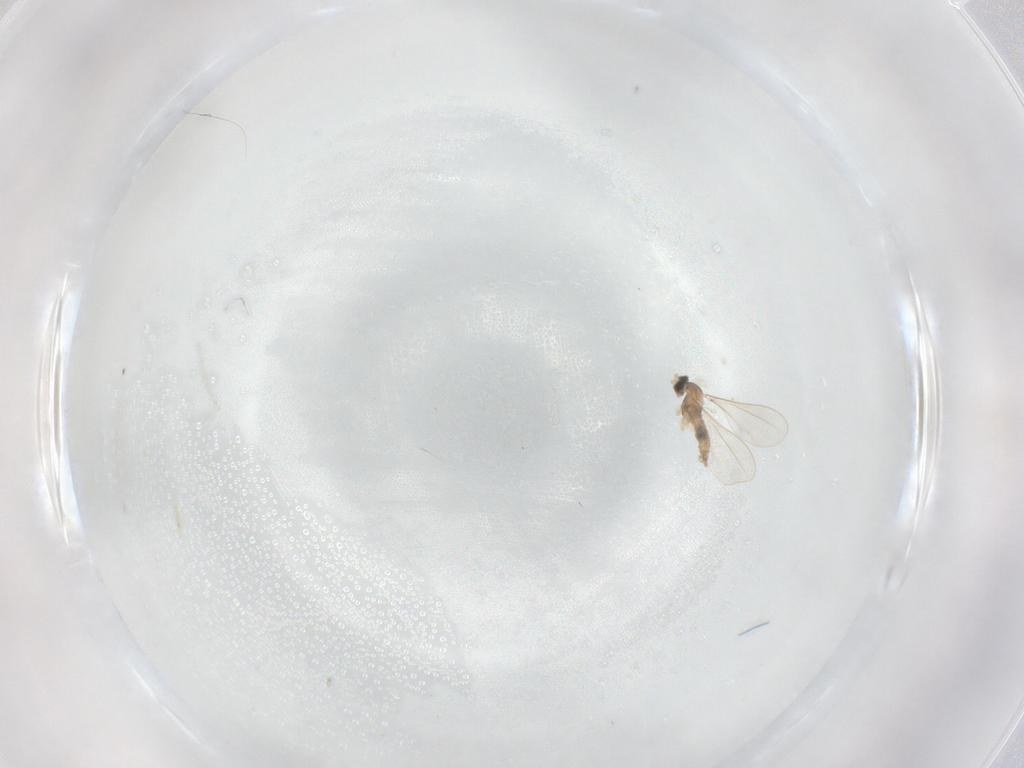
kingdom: Animalia
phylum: Arthropoda
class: Insecta
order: Diptera
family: Cecidomyiidae
